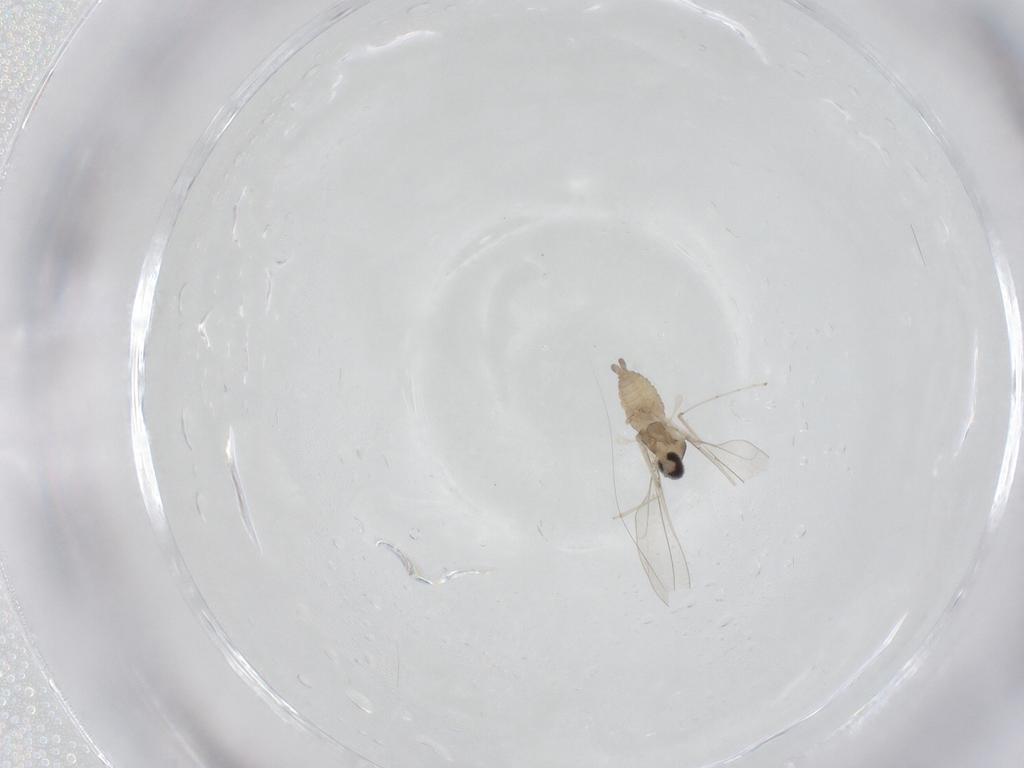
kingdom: Animalia
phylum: Arthropoda
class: Insecta
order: Diptera
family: Cecidomyiidae
